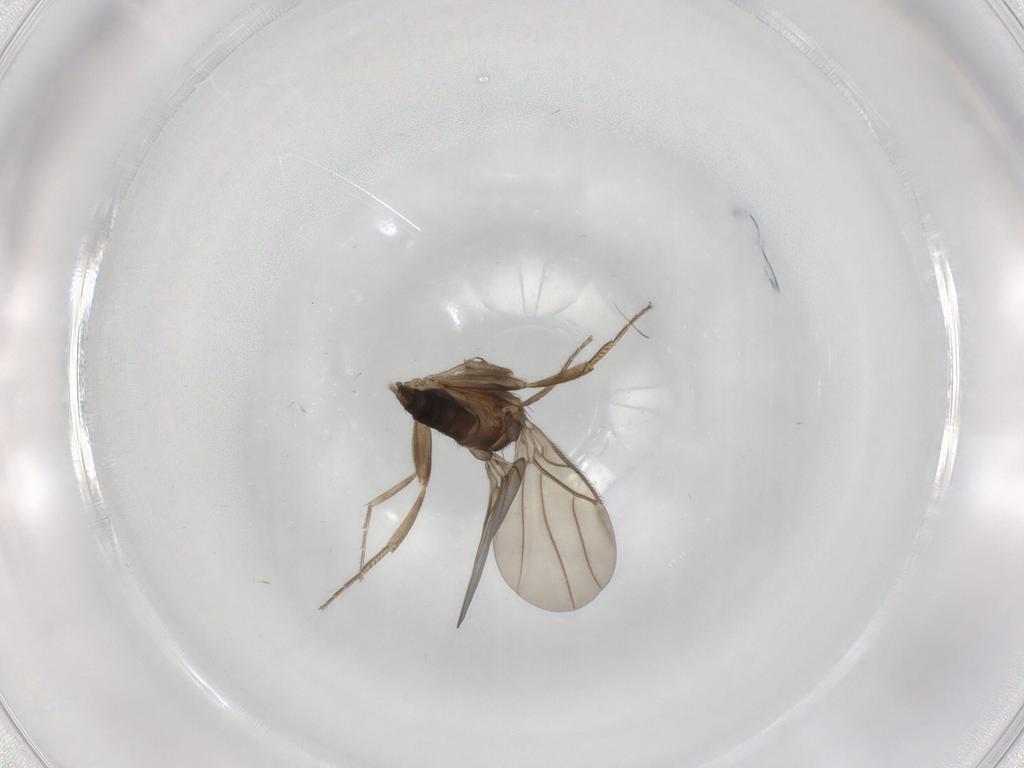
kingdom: Animalia
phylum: Arthropoda
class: Insecta
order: Diptera
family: Phoridae
